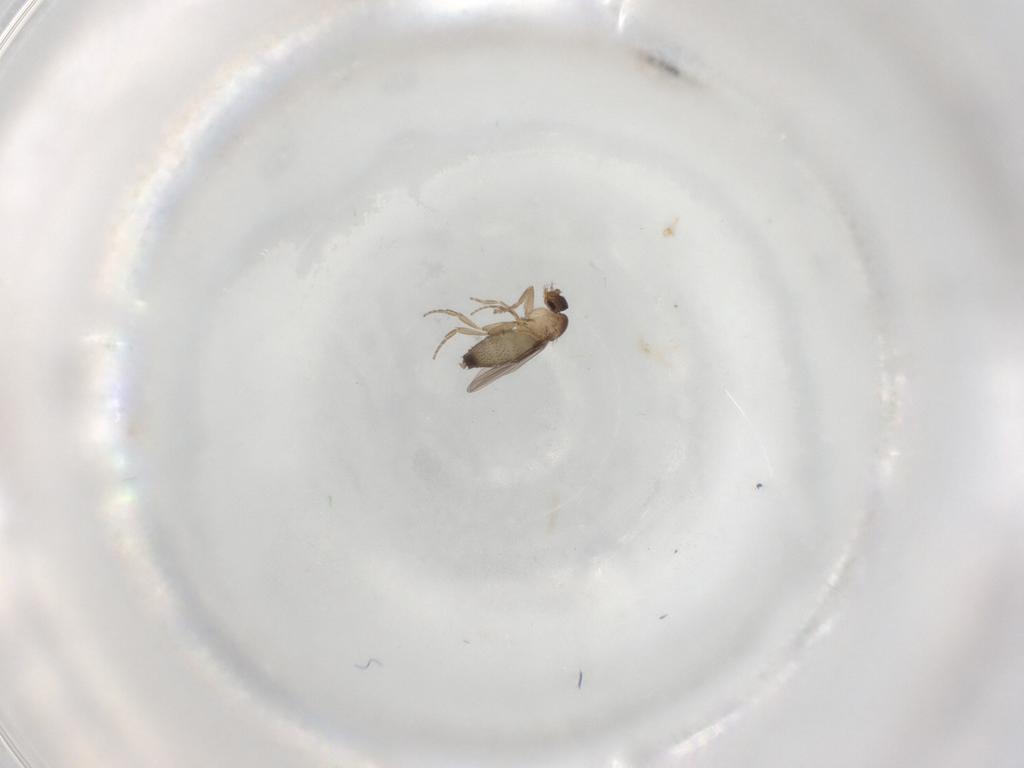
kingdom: Animalia
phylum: Arthropoda
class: Insecta
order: Diptera
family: Phoridae
